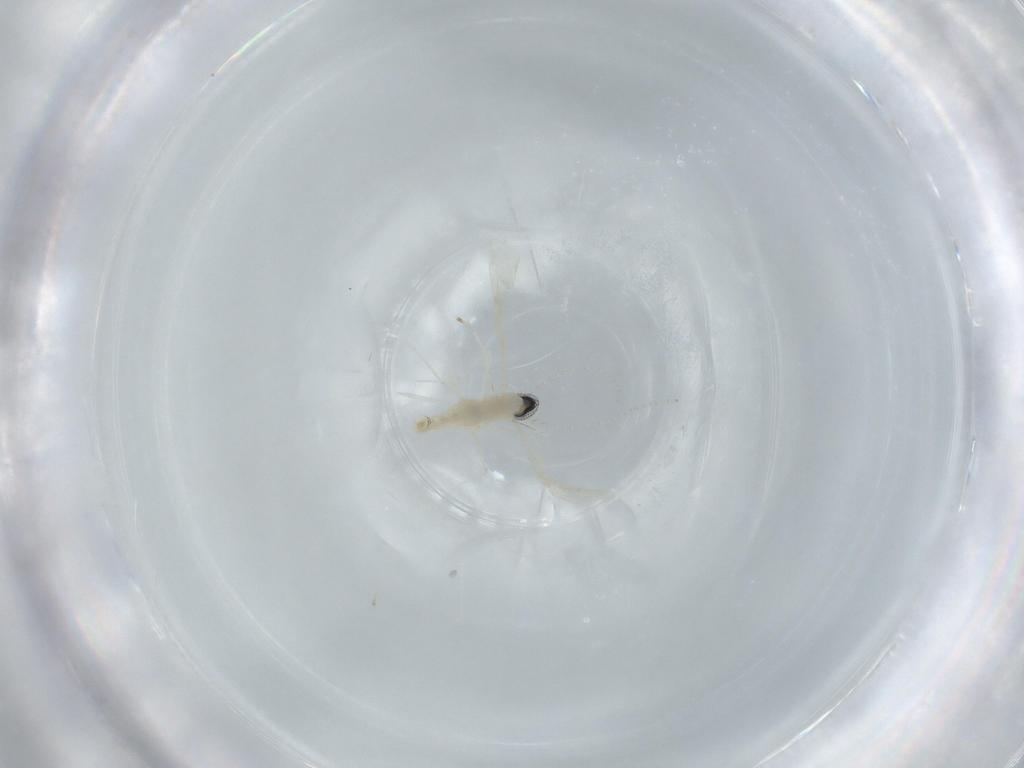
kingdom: Animalia
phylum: Arthropoda
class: Insecta
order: Diptera
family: Cecidomyiidae
